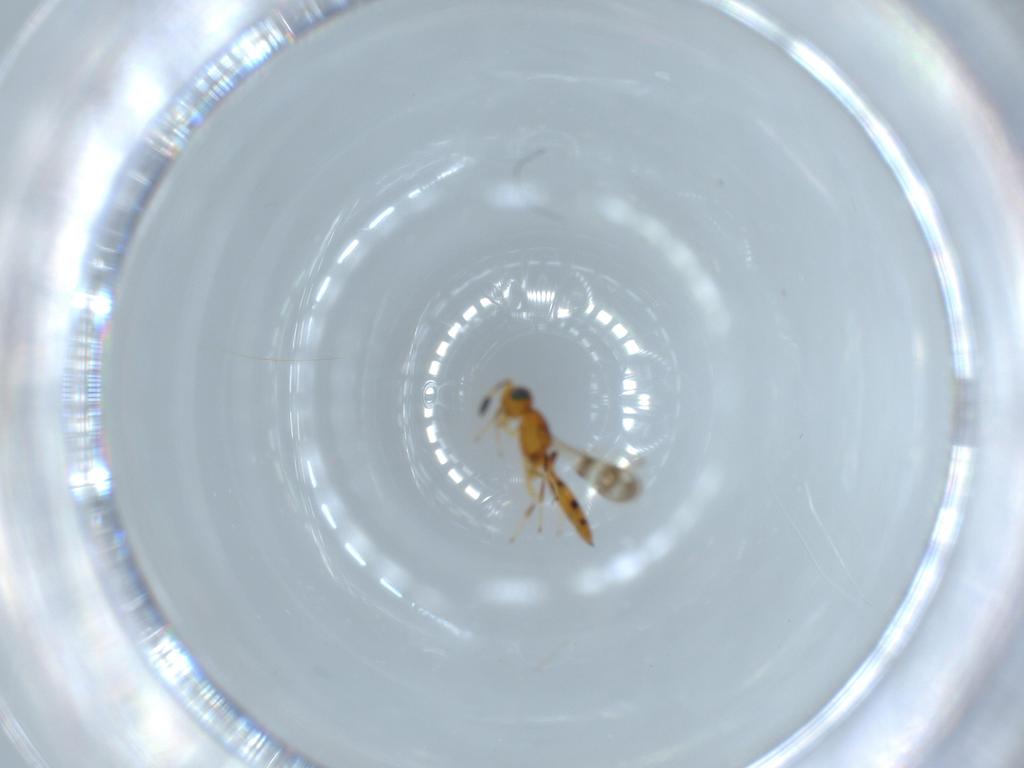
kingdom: Animalia
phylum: Arthropoda
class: Insecta
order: Hymenoptera
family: Scelionidae
